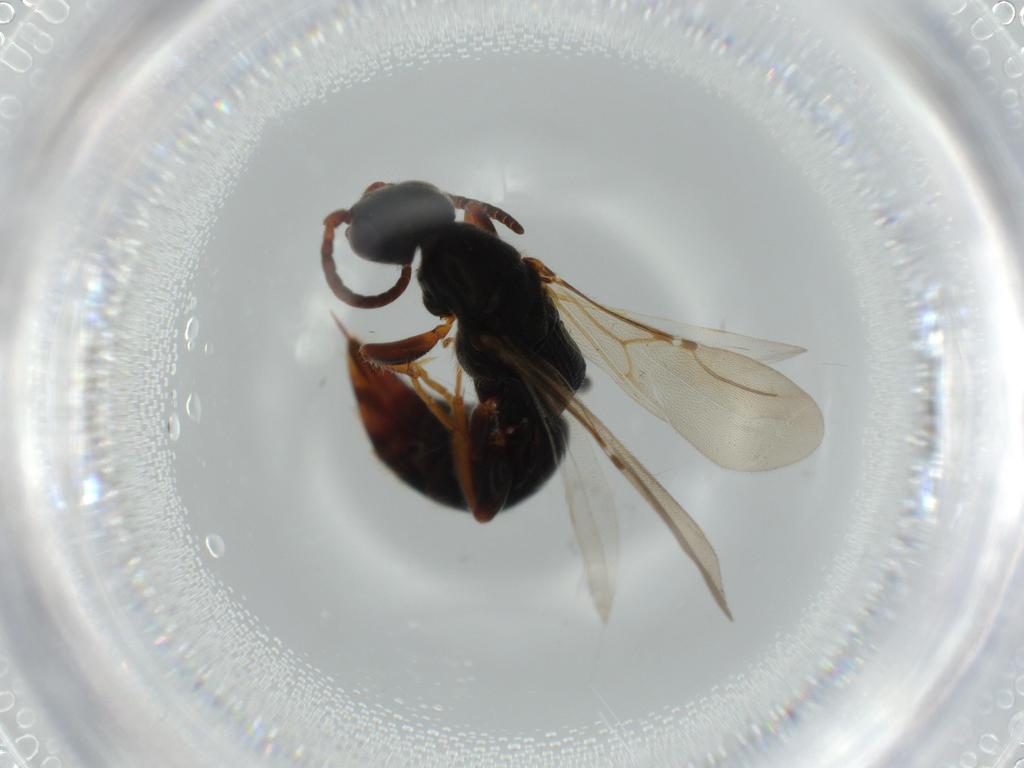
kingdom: Animalia
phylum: Arthropoda
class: Insecta
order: Hymenoptera
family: Bethylidae
